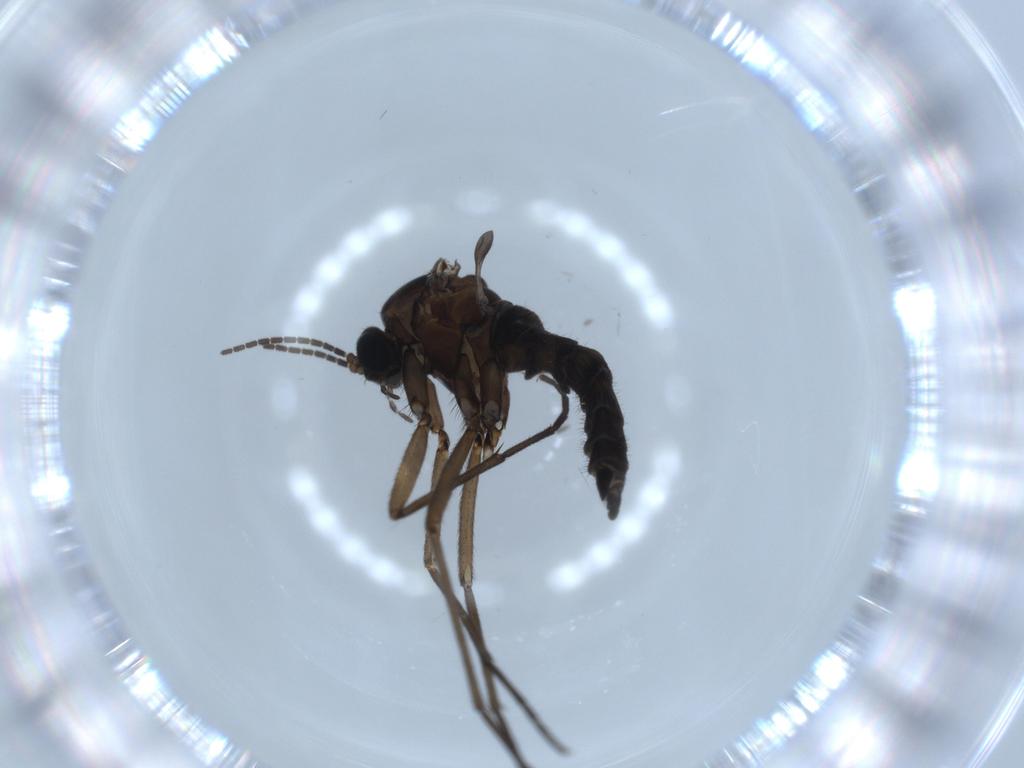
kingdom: Animalia
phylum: Arthropoda
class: Insecta
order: Diptera
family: Sciaridae
